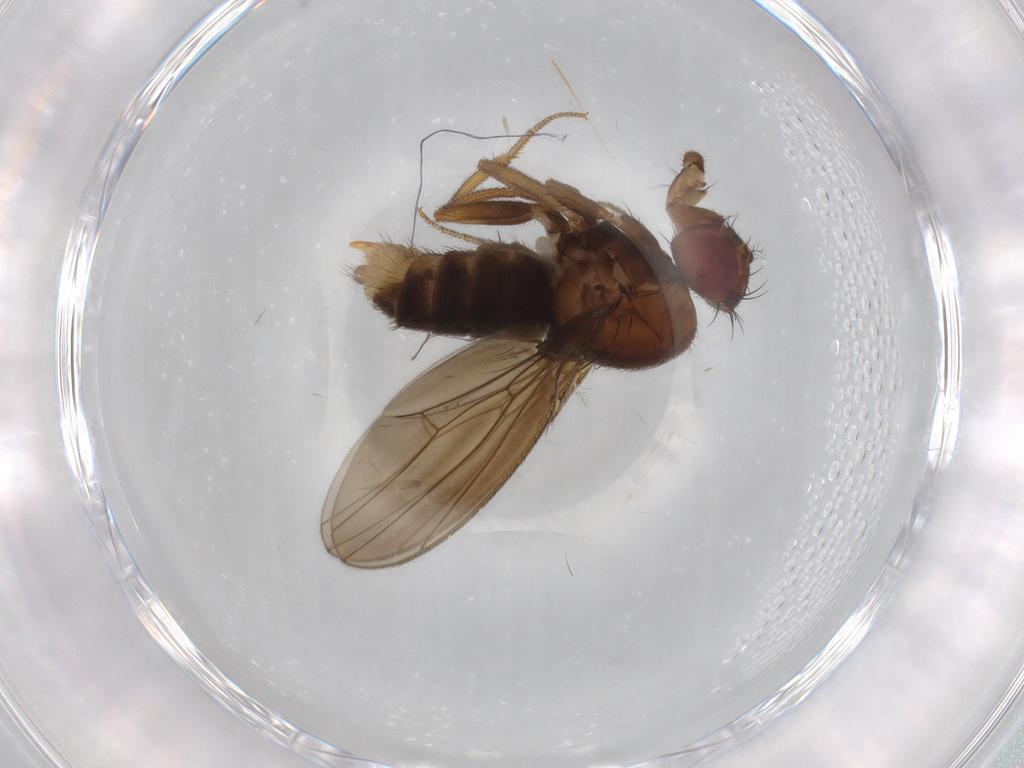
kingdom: Animalia
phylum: Arthropoda
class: Insecta
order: Diptera
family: Drosophilidae
